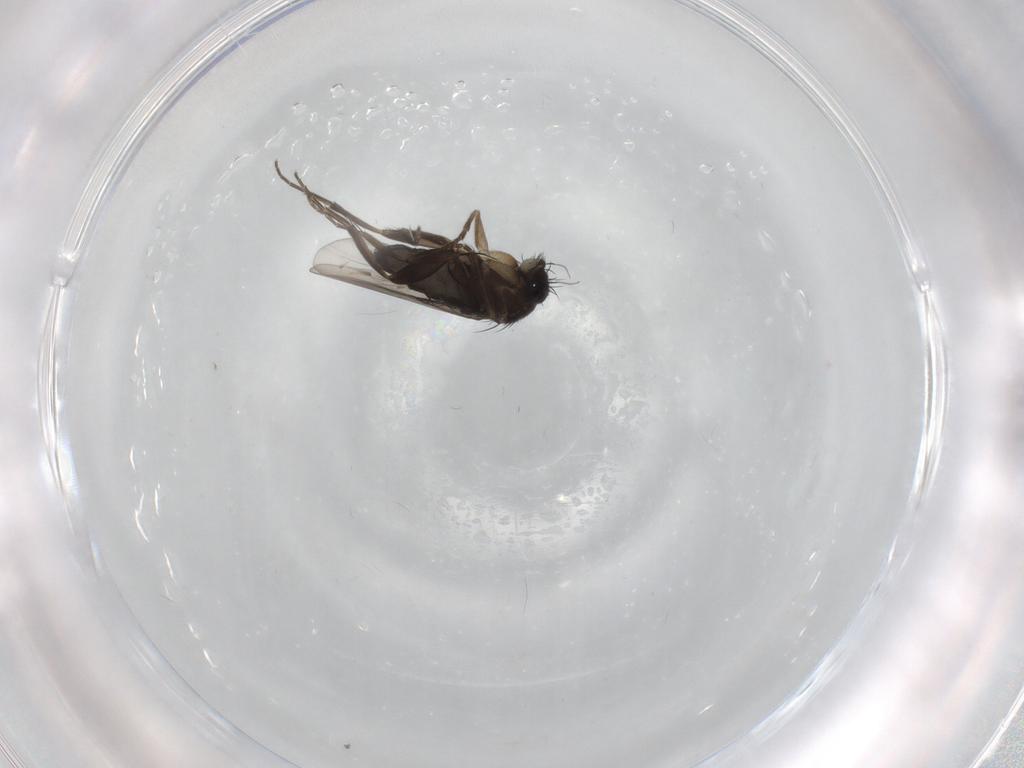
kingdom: Animalia
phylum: Arthropoda
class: Insecta
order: Diptera
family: Phoridae
